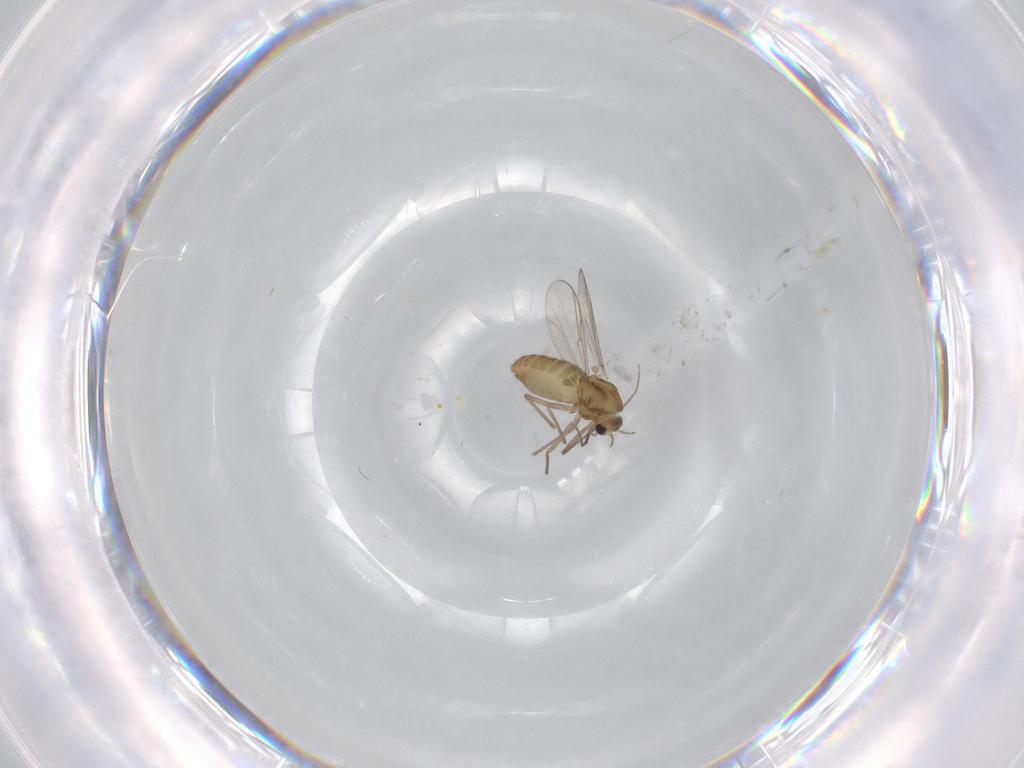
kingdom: Animalia
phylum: Arthropoda
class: Insecta
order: Diptera
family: Chironomidae
